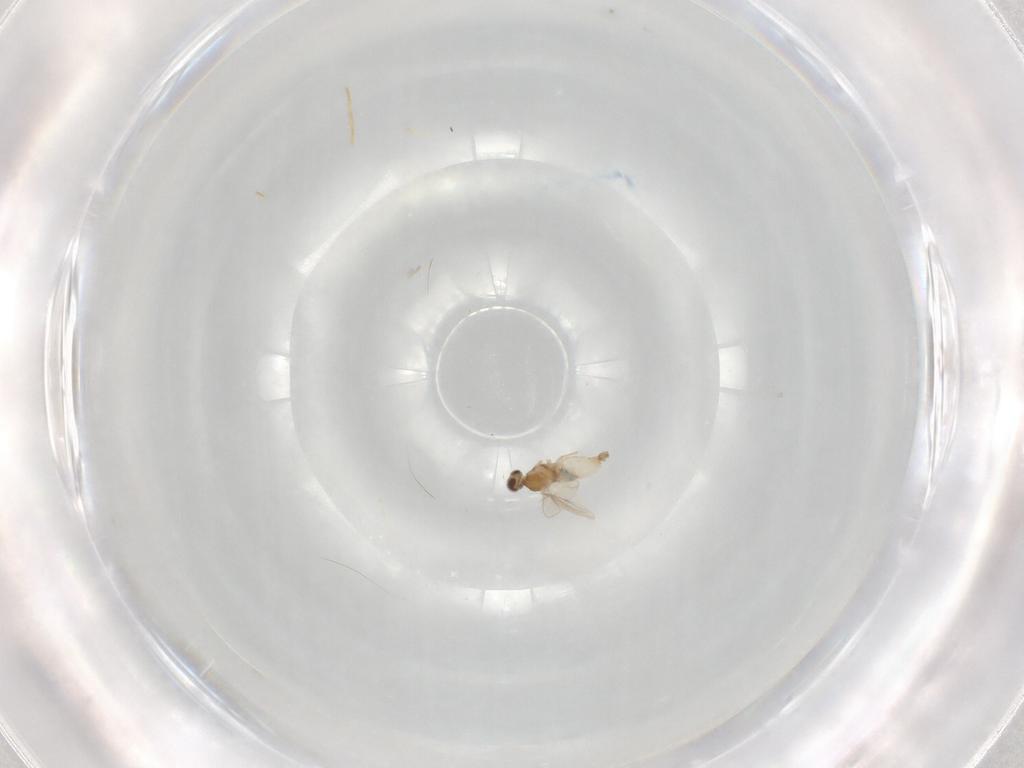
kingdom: Animalia
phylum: Arthropoda
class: Insecta
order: Diptera
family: Cecidomyiidae
